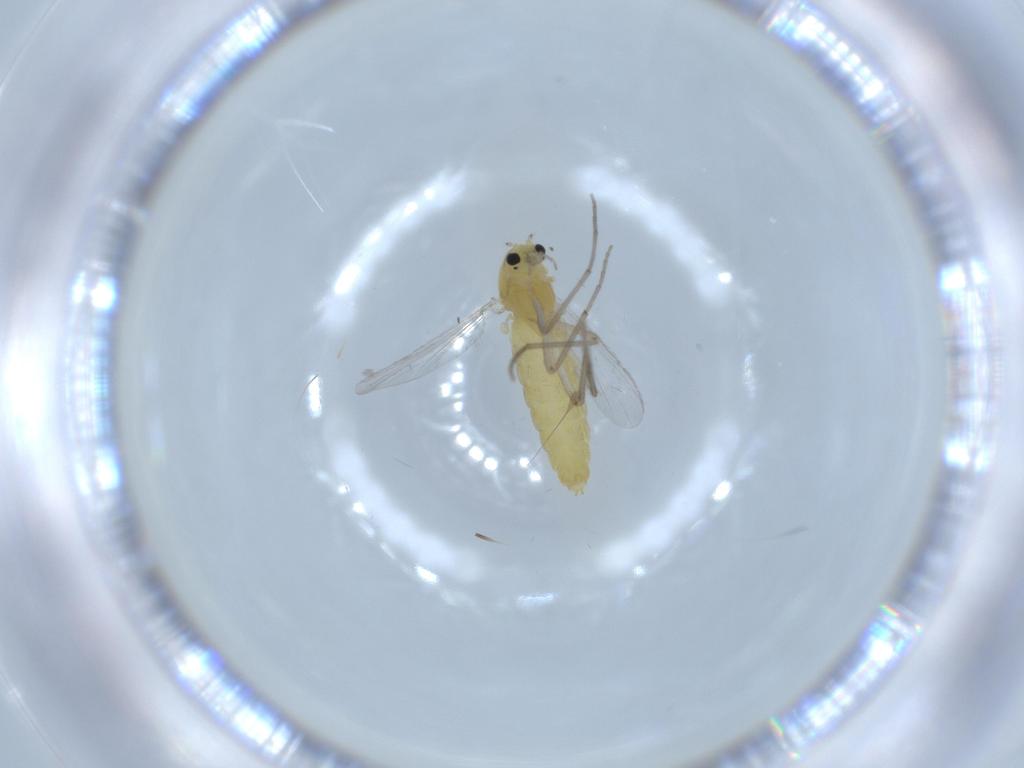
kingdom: Animalia
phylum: Arthropoda
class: Insecta
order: Diptera
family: Chironomidae
